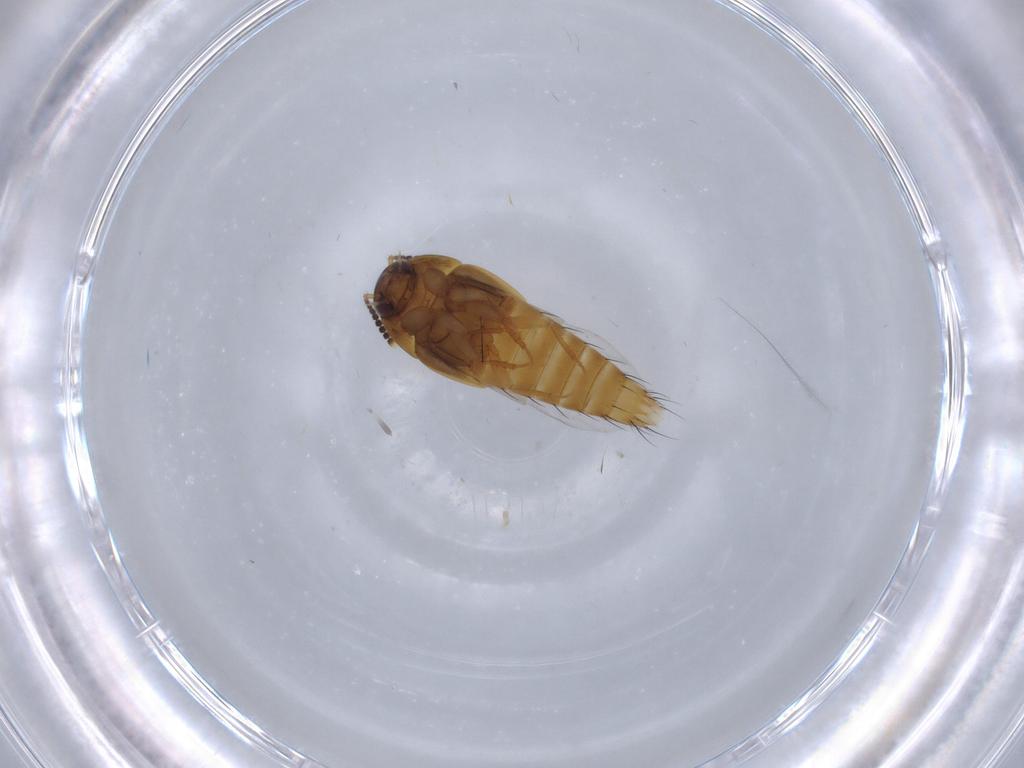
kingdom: Animalia
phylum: Arthropoda
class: Insecta
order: Coleoptera
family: Staphylinidae
